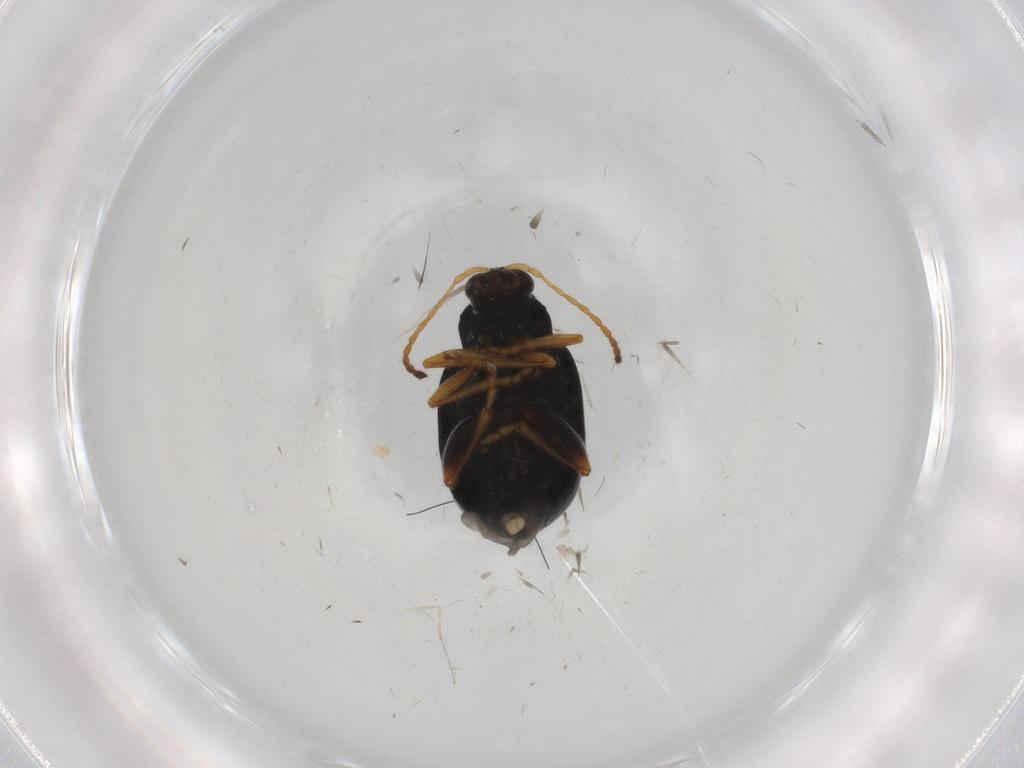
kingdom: Animalia
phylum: Arthropoda
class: Insecta
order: Coleoptera
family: Chrysomelidae
